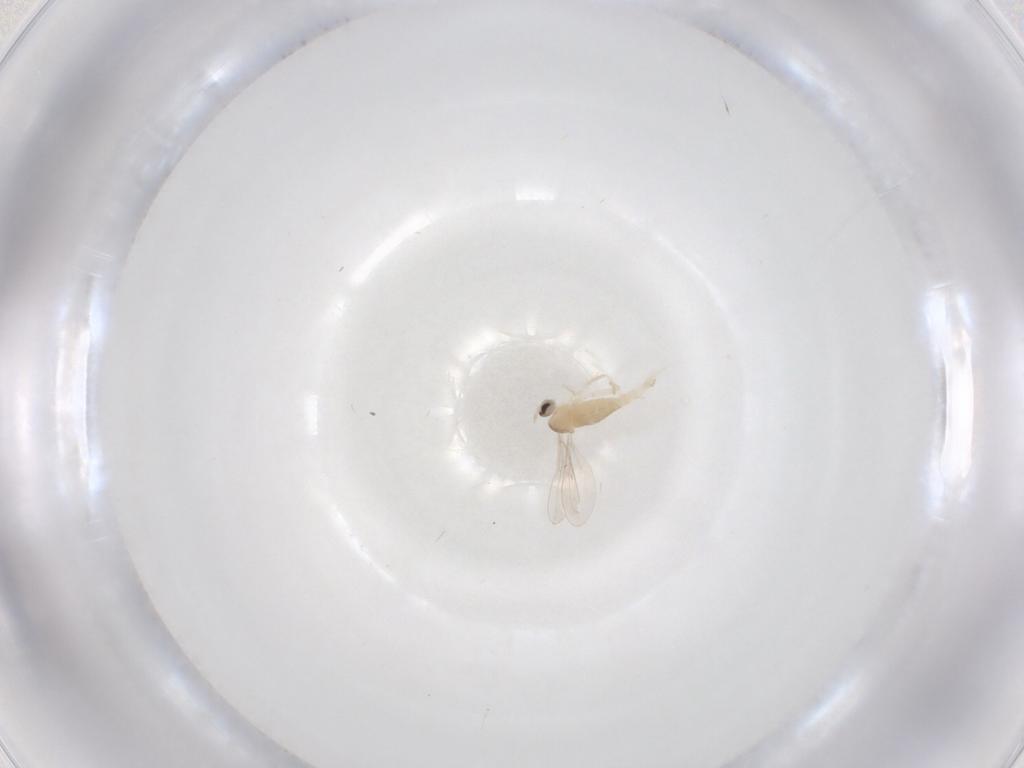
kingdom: Animalia
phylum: Arthropoda
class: Insecta
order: Diptera
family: Cecidomyiidae
